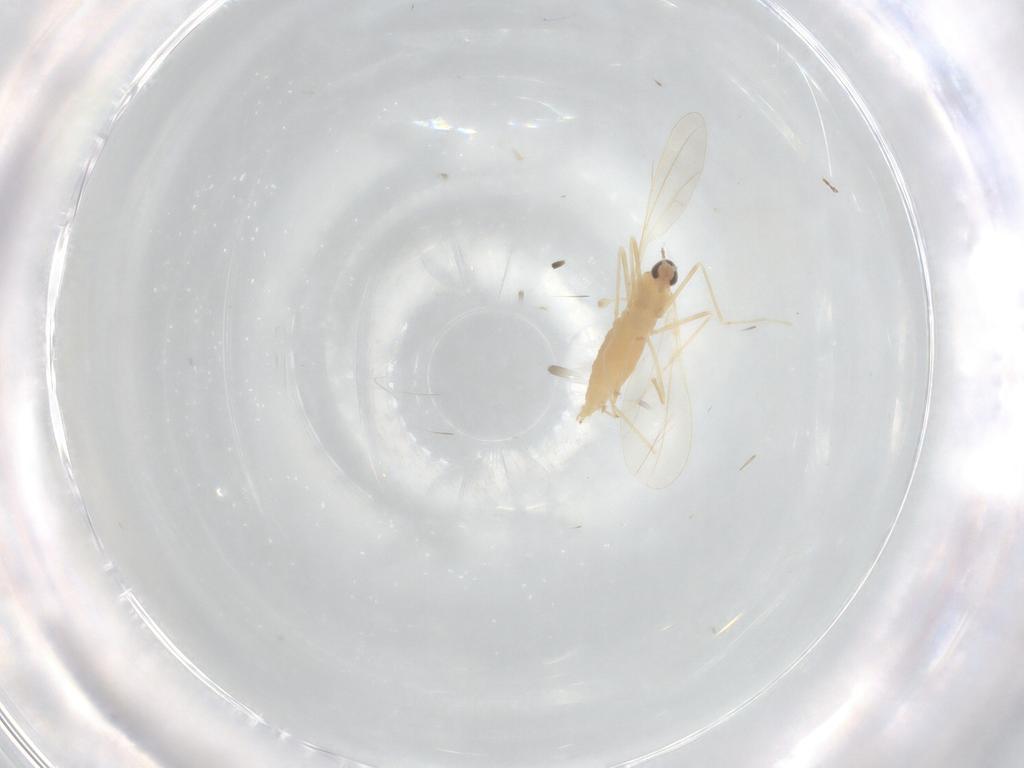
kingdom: Animalia
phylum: Arthropoda
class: Insecta
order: Diptera
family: Cecidomyiidae
